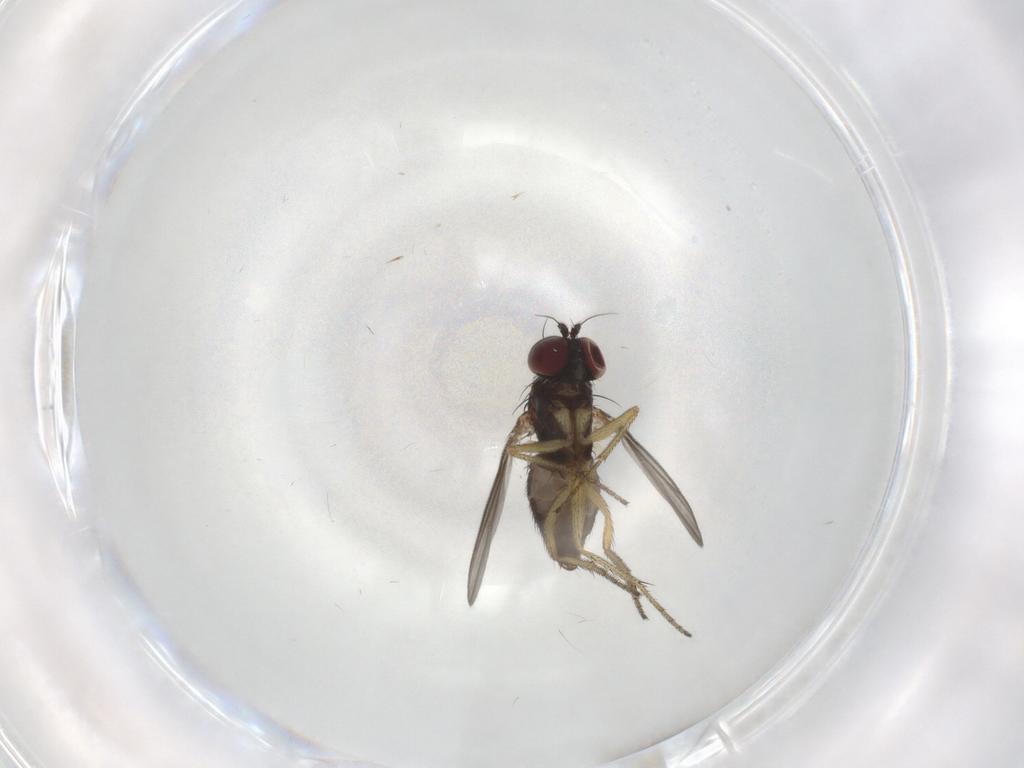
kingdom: Animalia
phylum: Arthropoda
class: Insecta
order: Diptera
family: Dolichopodidae
